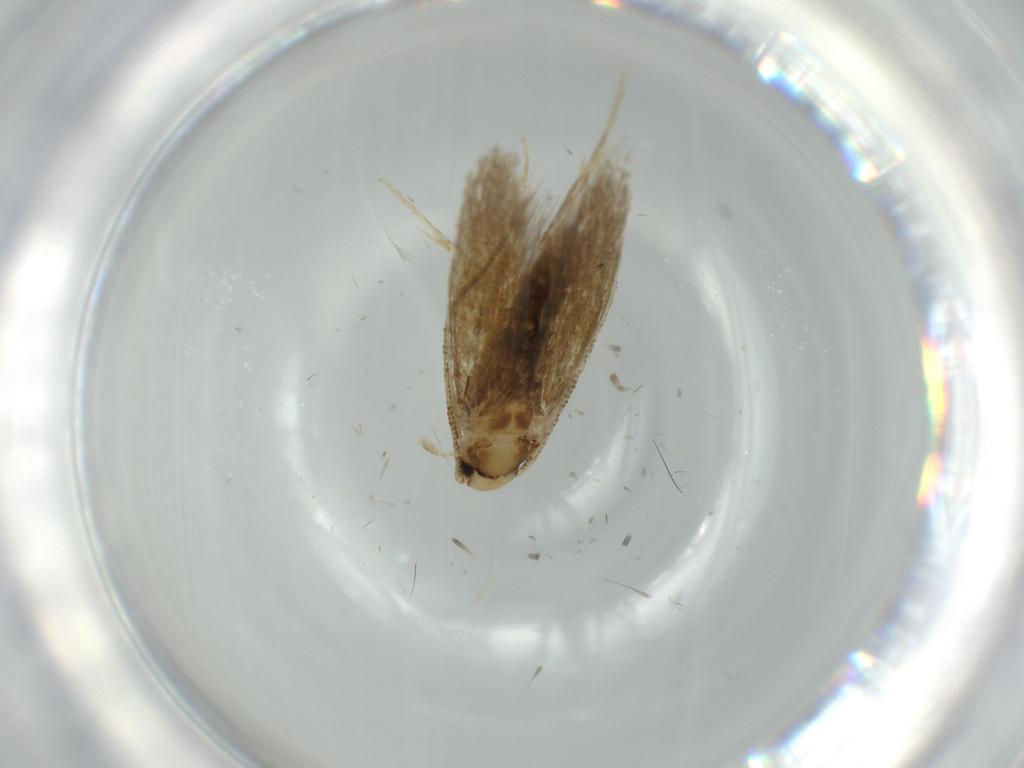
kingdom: Animalia
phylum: Arthropoda
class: Insecta
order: Lepidoptera
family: Tineidae
